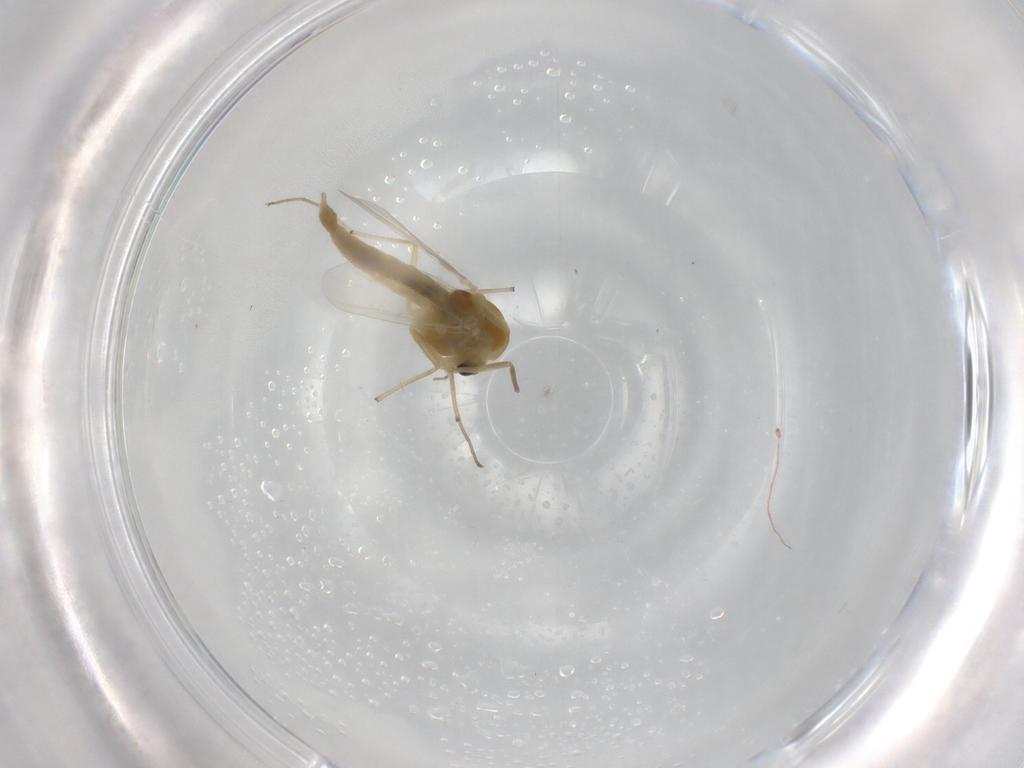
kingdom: Animalia
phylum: Arthropoda
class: Insecta
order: Diptera
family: Chironomidae
